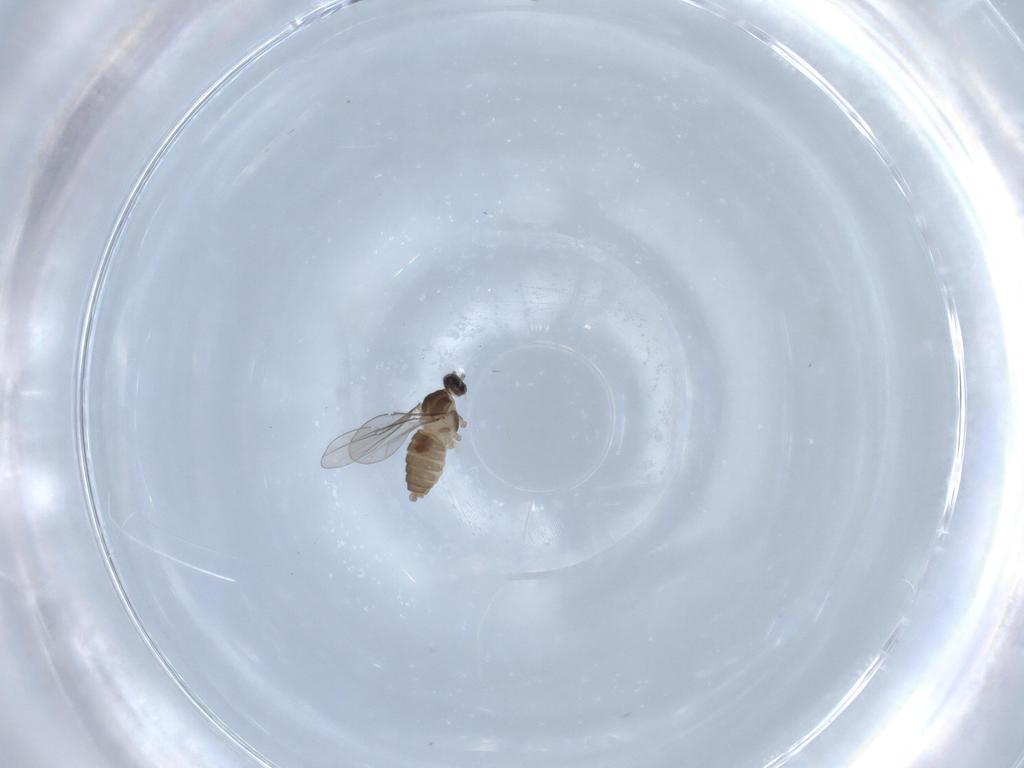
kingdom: Animalia
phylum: Arthropoda
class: Insecta
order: Diptera
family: Cecidomyiidae
